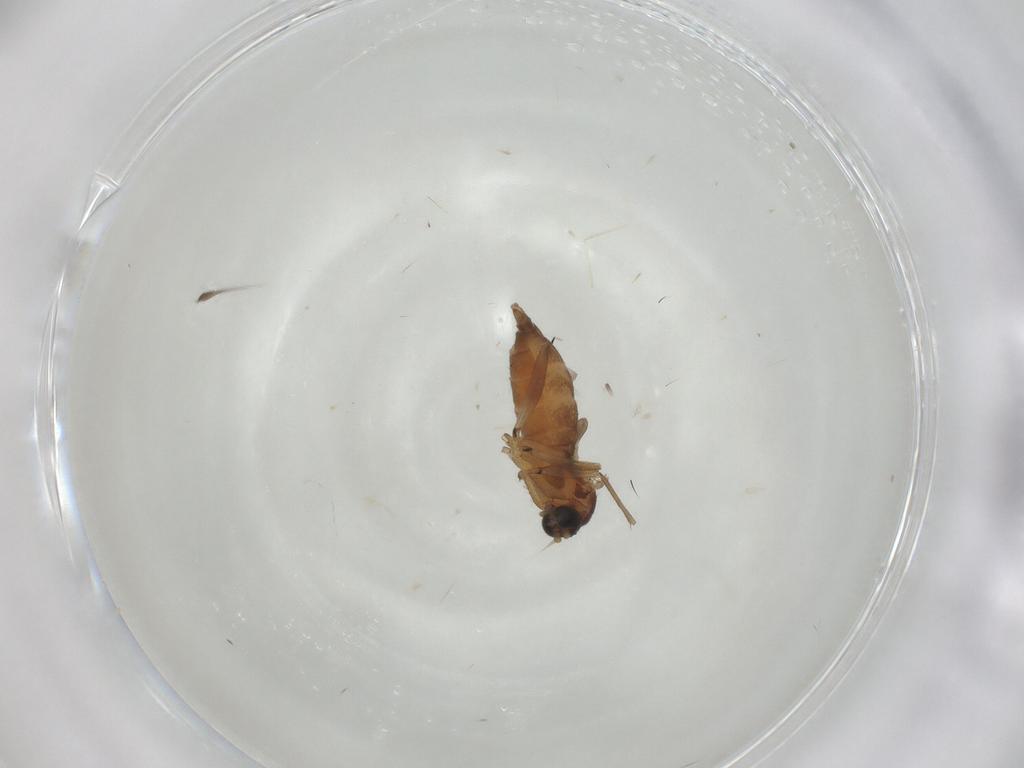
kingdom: Animalia
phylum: Arthropoda
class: Insecta
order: Diptera
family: Sciaridae
